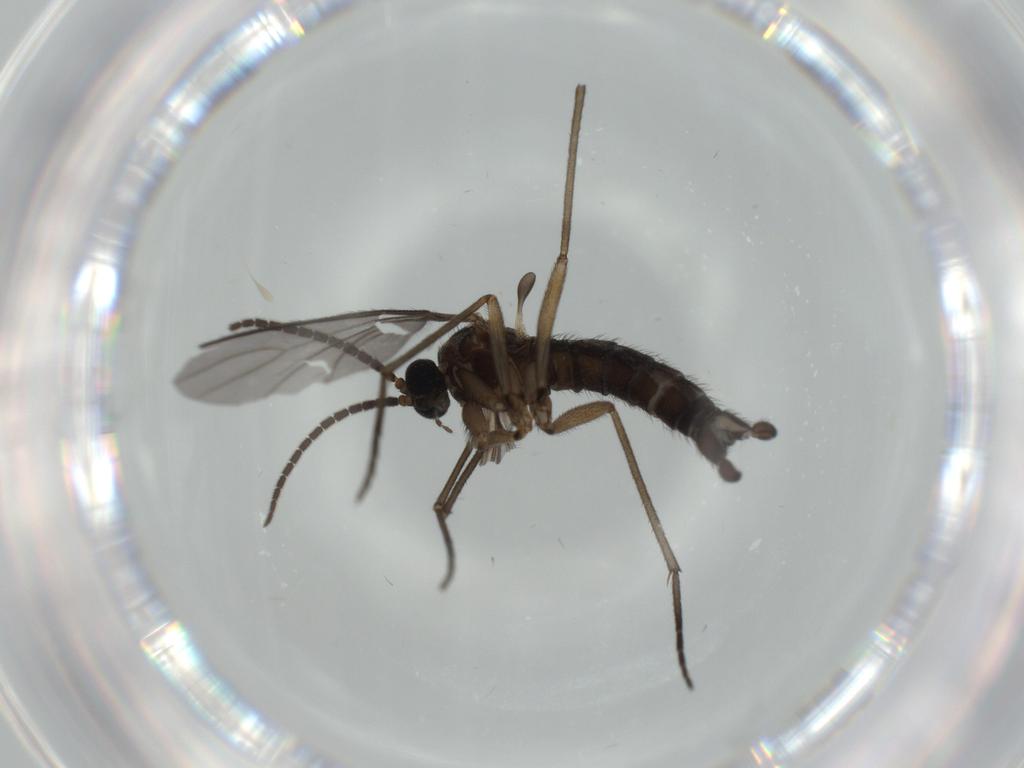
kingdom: Animalia
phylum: Arthropoda
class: Insecta
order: Diptera
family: Sciaridae
